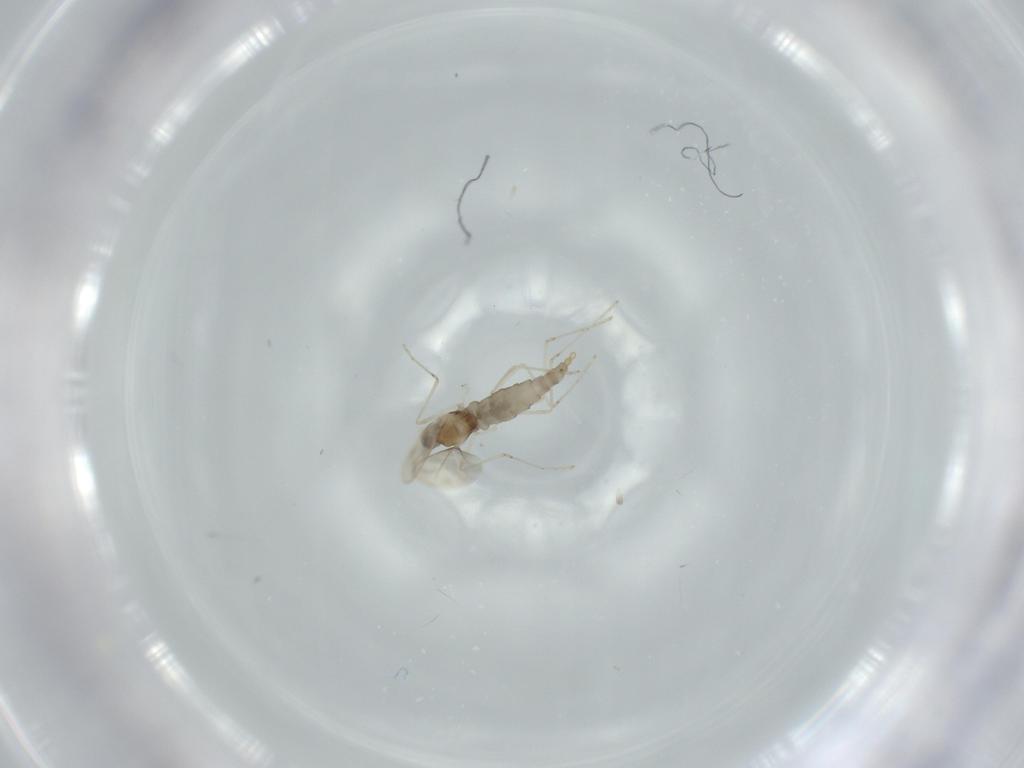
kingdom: Animalia
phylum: Arthropoda
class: Insecta
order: Diptera
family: Cecidomyiidae
